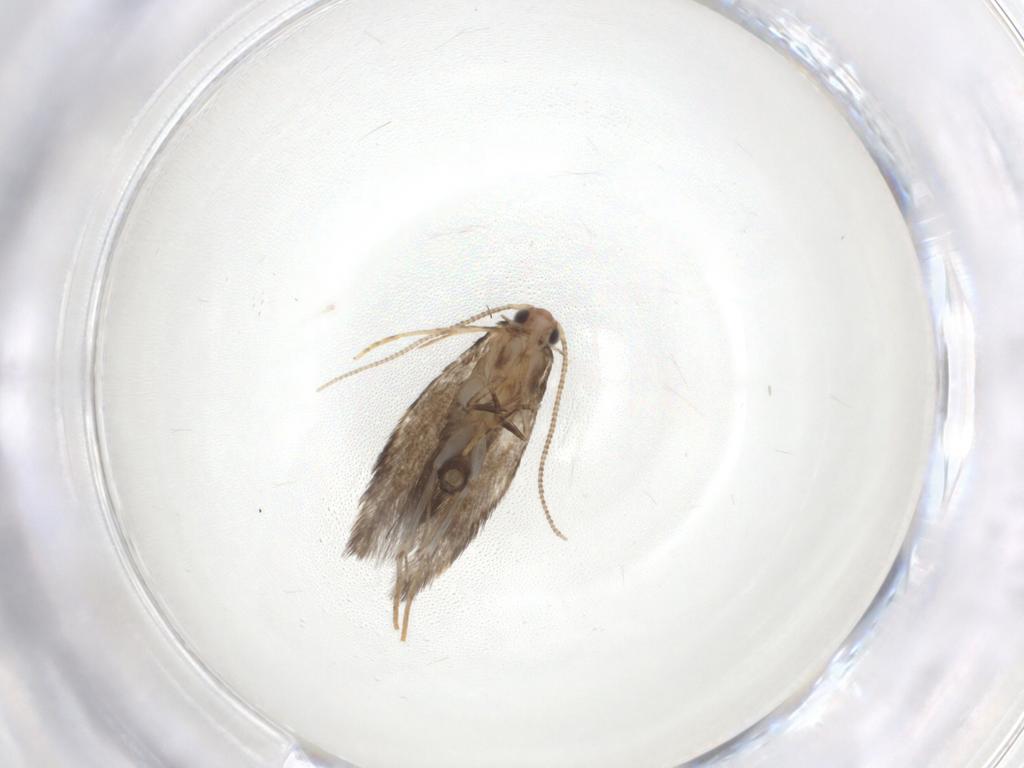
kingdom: Animalia
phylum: Arthropoda
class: Insecta
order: Lepidoptera
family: Tineidae
